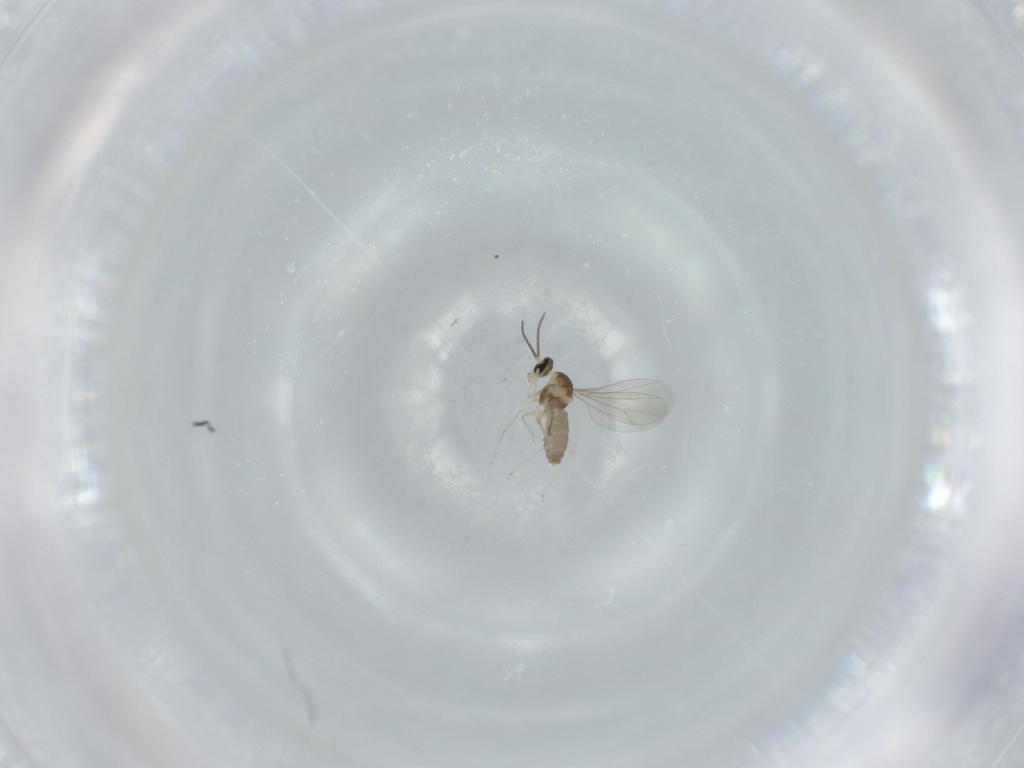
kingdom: Animalia
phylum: Arthropoda
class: Insecta
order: Diptera
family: Cecidomyiidae
